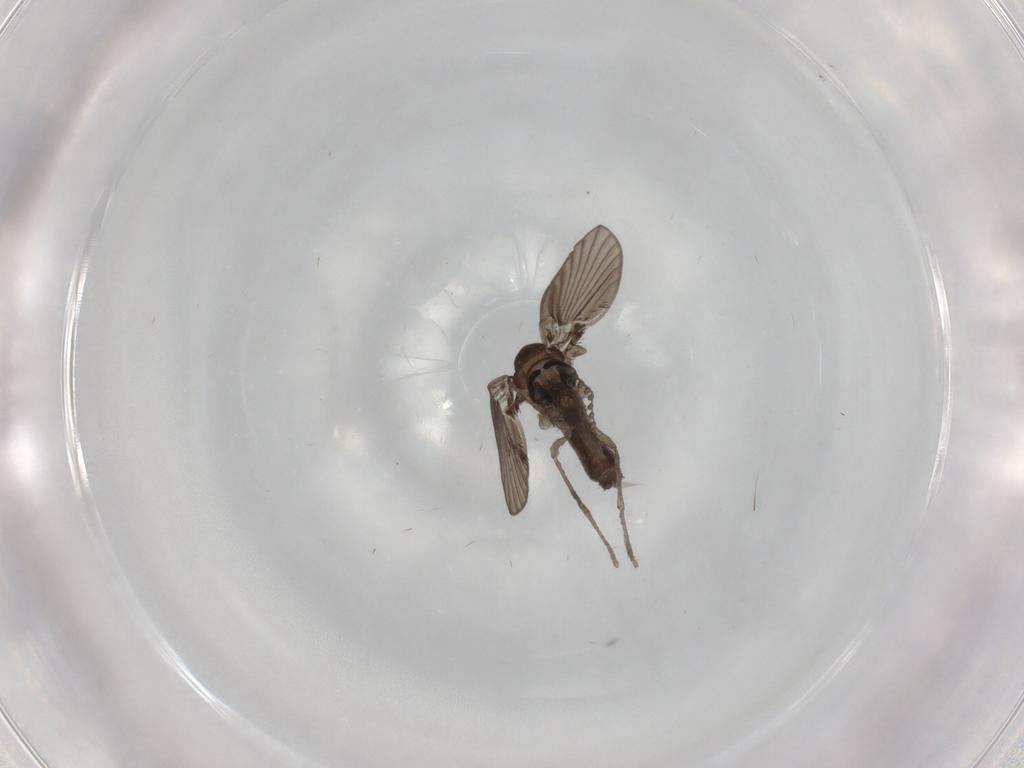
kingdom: Animalia
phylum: Arthropoda
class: Insecta
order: Diptera
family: Psychodidae
